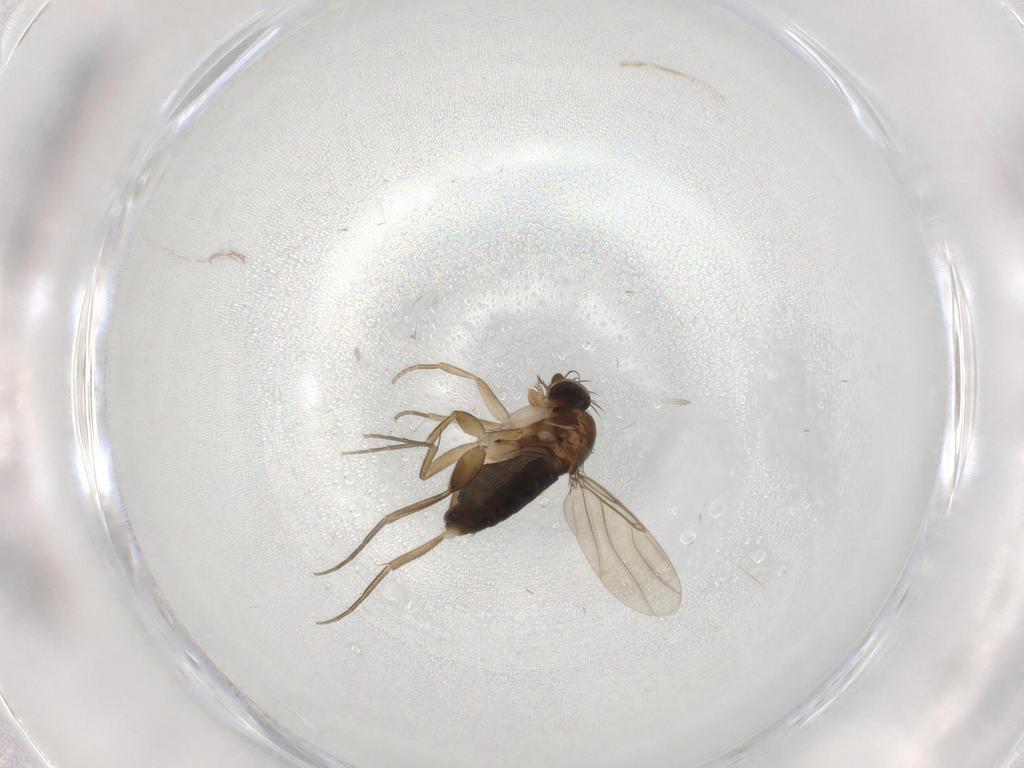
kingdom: Animalia
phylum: Arthropoda
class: Insecta
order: Diptera
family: Phoridae
